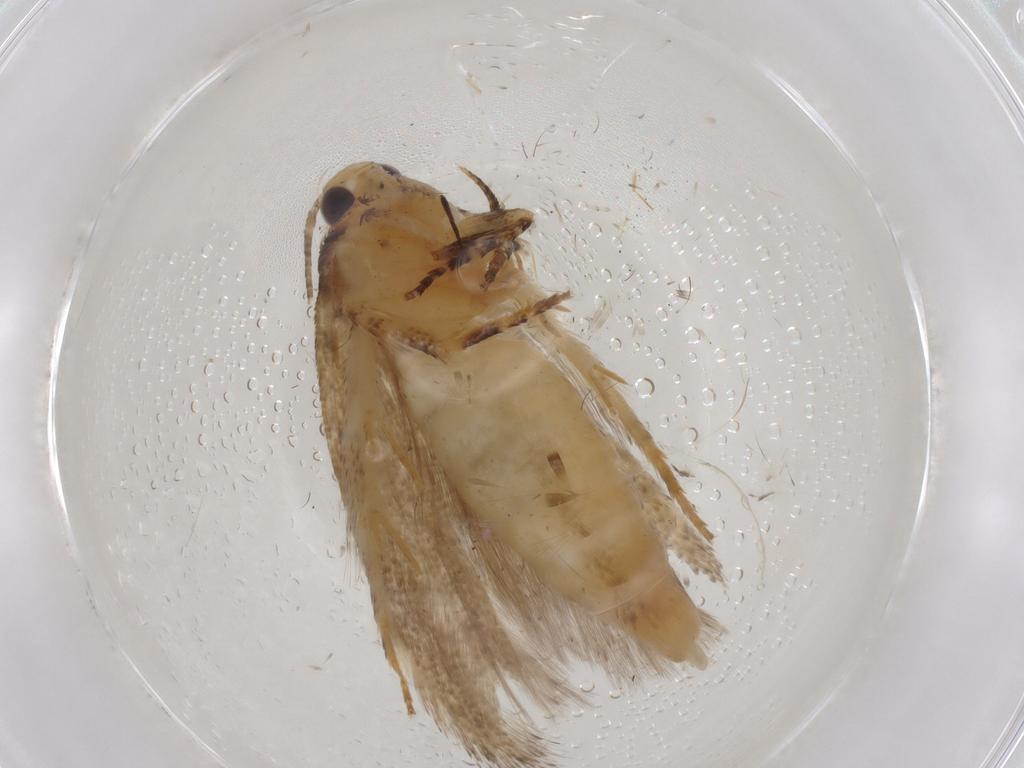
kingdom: Animalia
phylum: Arthropoda
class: Insecta
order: Lepidoptera
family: Gelechiidae
